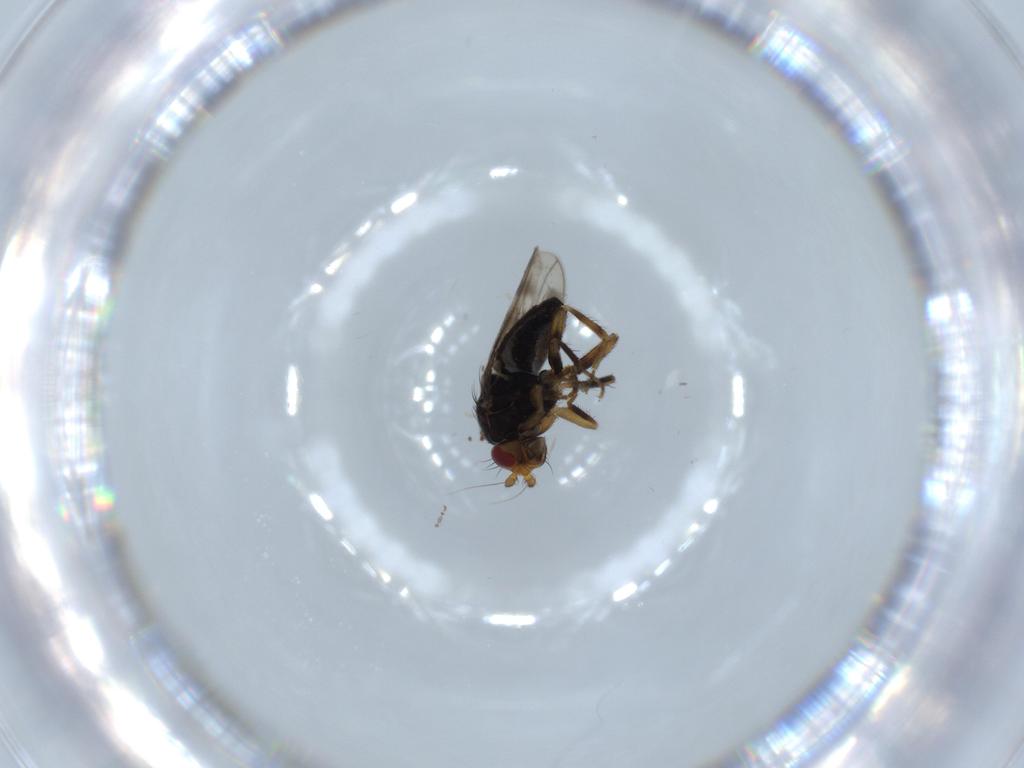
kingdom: Animalia
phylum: Arthropoda
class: Insecta
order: Diptera
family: Sphaeroceridae
